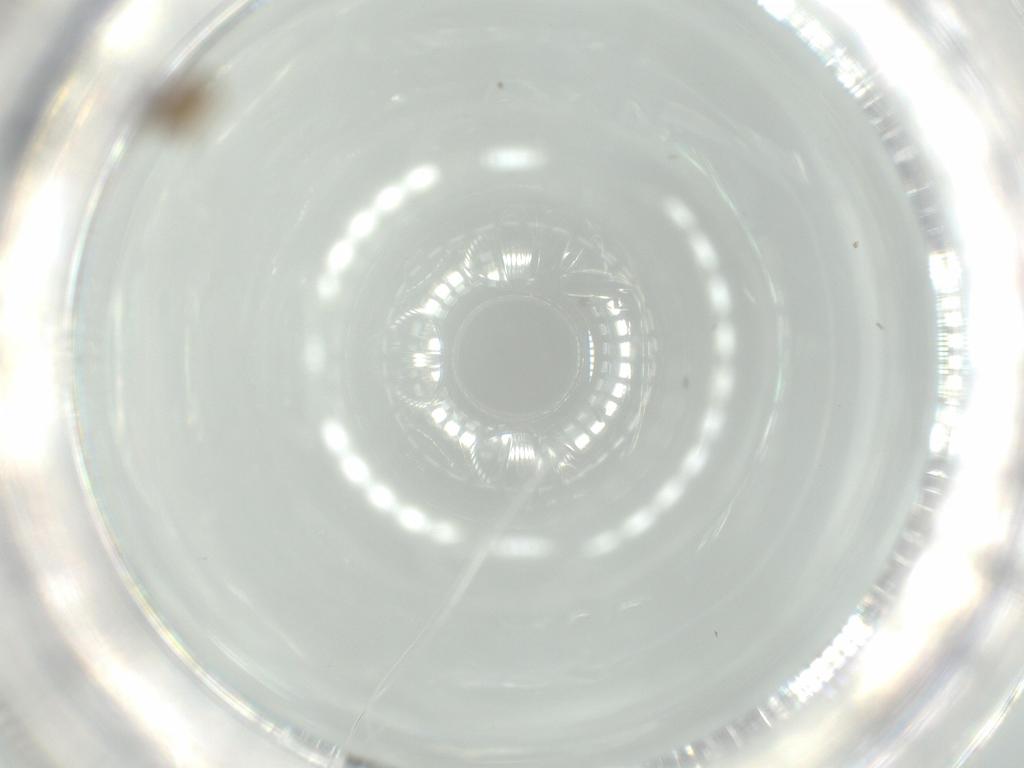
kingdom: Animalia
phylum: Arthropoda
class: Insecta
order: Diptera
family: Chironomidae
